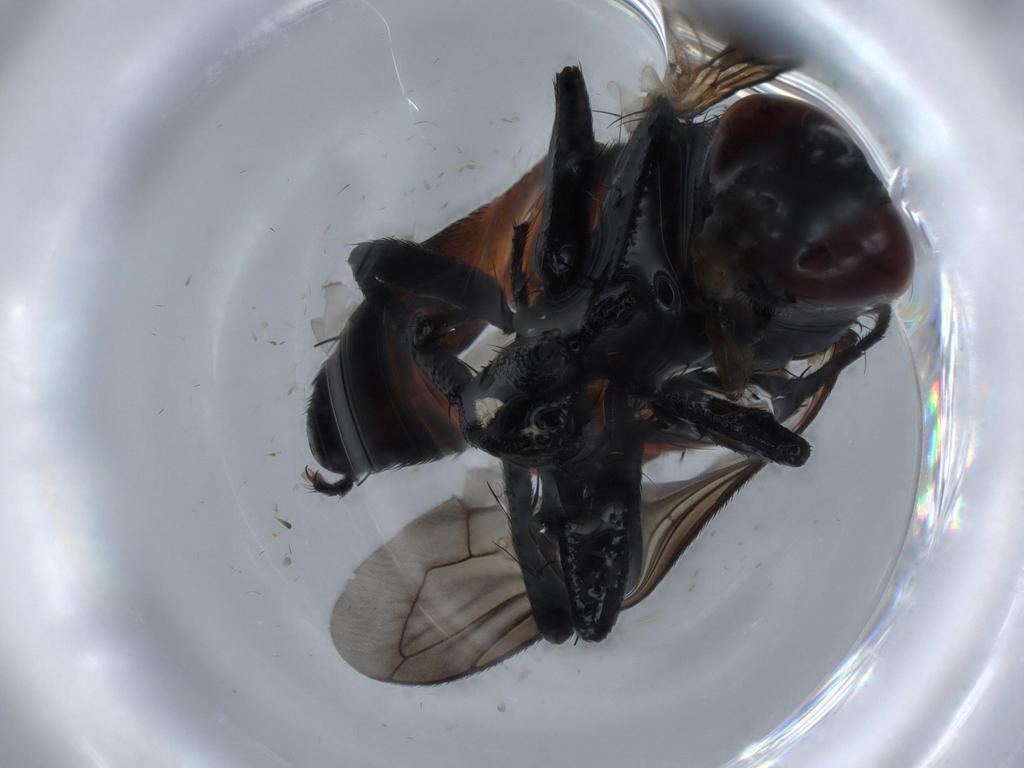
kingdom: Animalia
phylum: Arthropoda
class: Insecta
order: Diptera
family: Tachinidae
